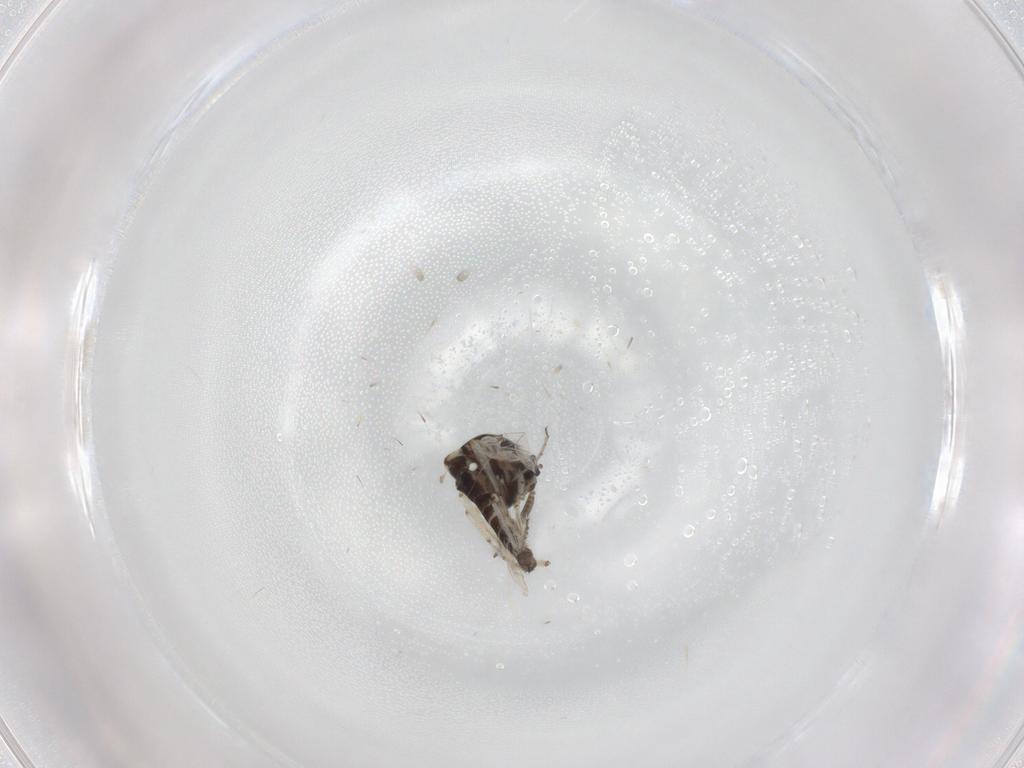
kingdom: Animalia
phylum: Arthropoda
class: Insecta
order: Diptera
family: Ceratopogonidae
